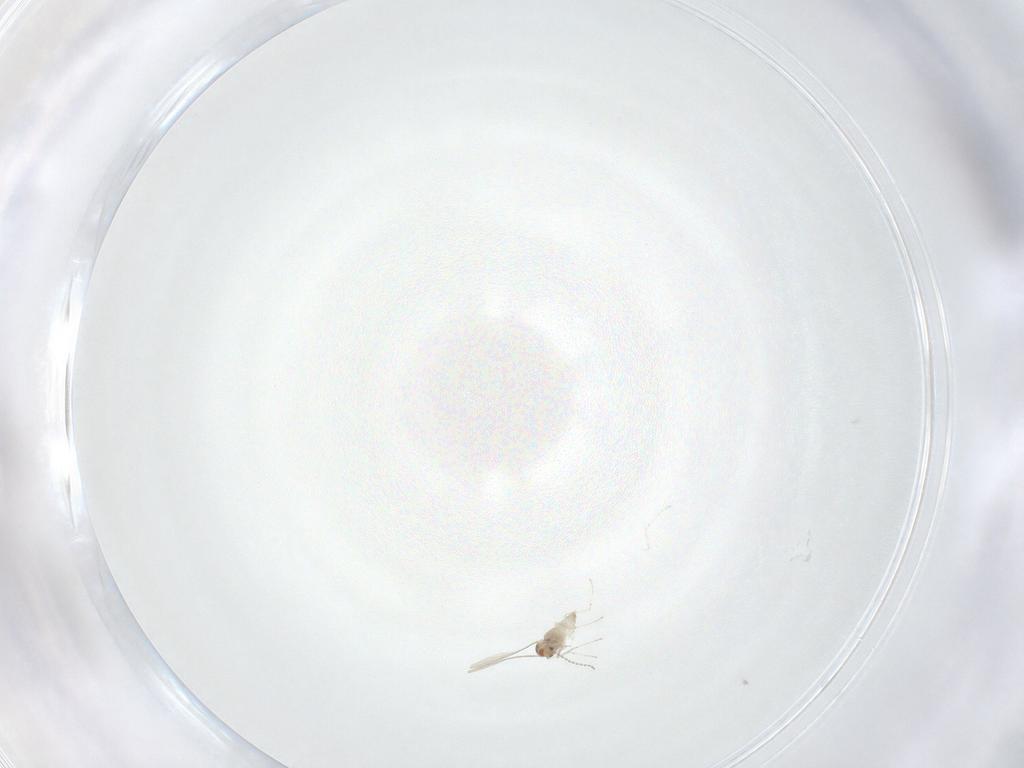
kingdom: Animalia
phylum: Arthropoda
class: Insecta
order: Diptera
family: Cecidomyiidae
